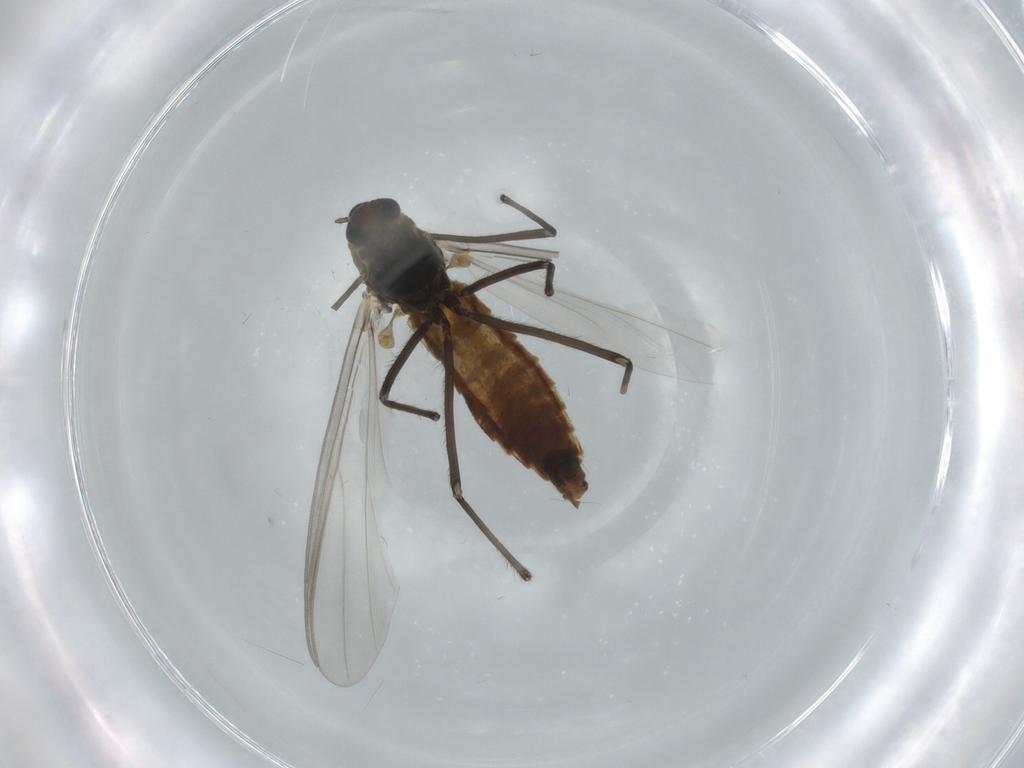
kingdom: Animalia
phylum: Arthropoda
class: Insecta
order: Diptera
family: Chironomidae
